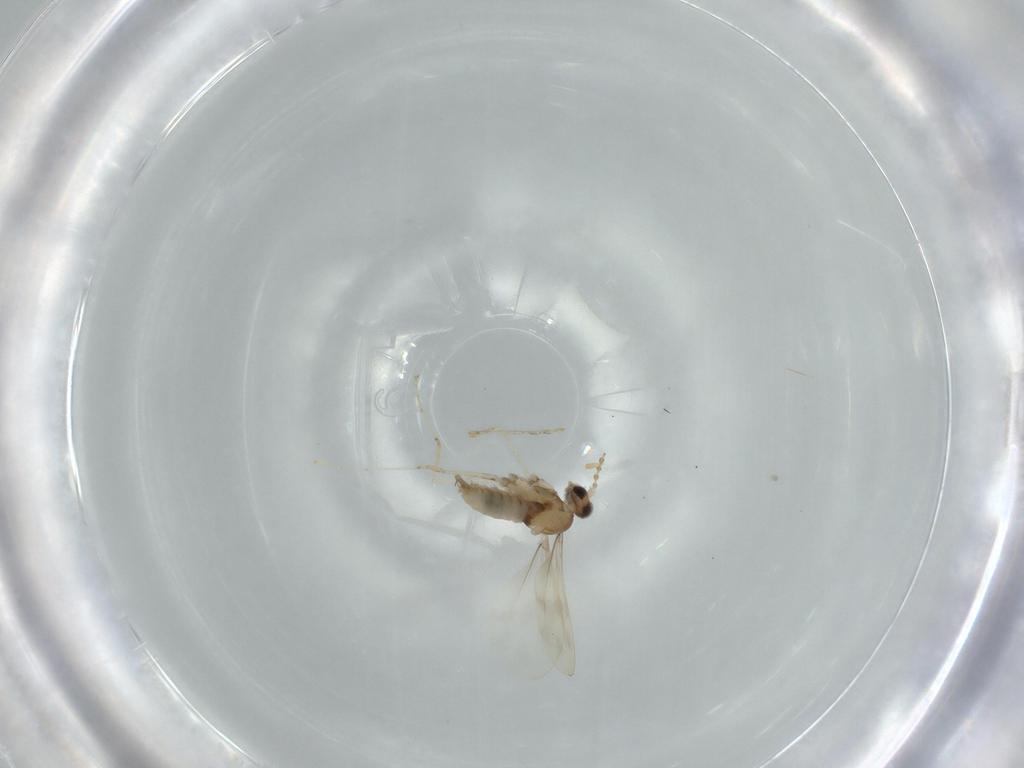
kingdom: Animalia
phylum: Arthropoda
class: Insecta
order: Diptera
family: Cecidomyiidae
